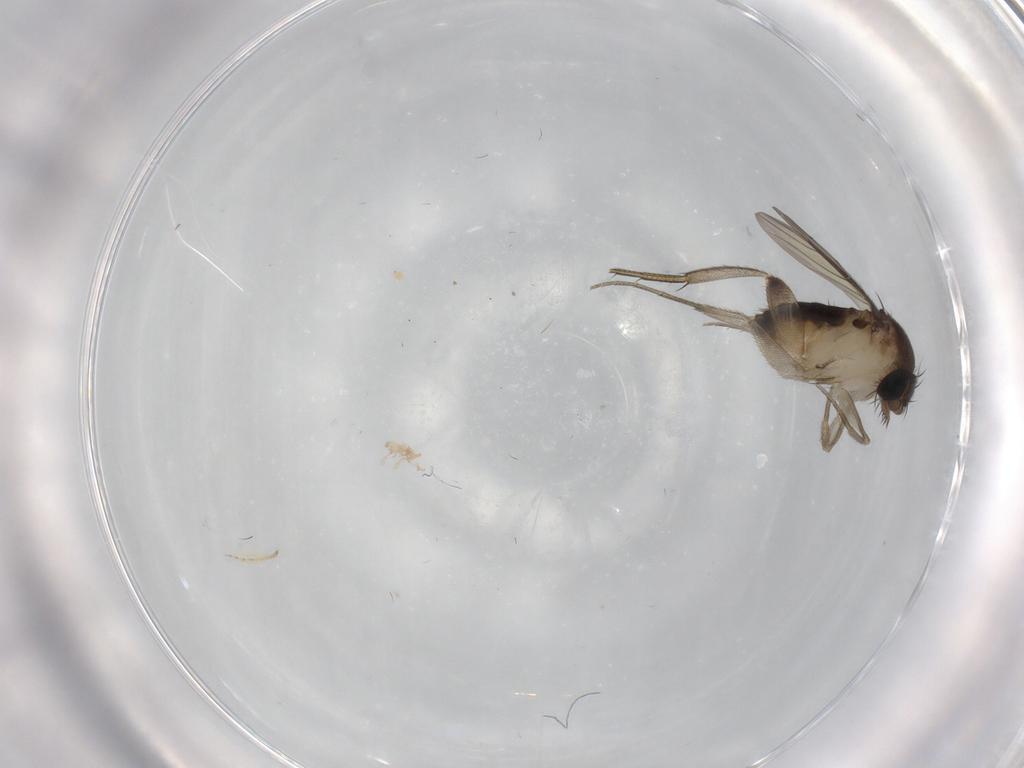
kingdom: Animalia
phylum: Arthropoda
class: Insecta
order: Diptera
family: Phoridae
